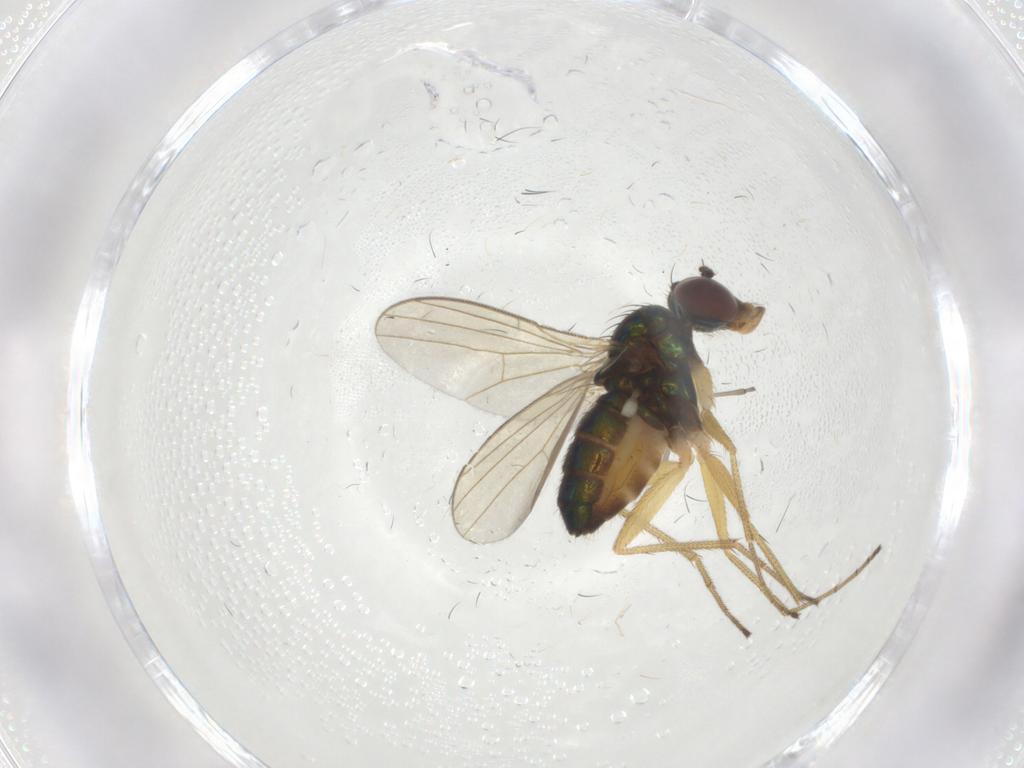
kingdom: Animalia
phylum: Arthropoda
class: Insecta
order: Diptera
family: Dolichopodidae
